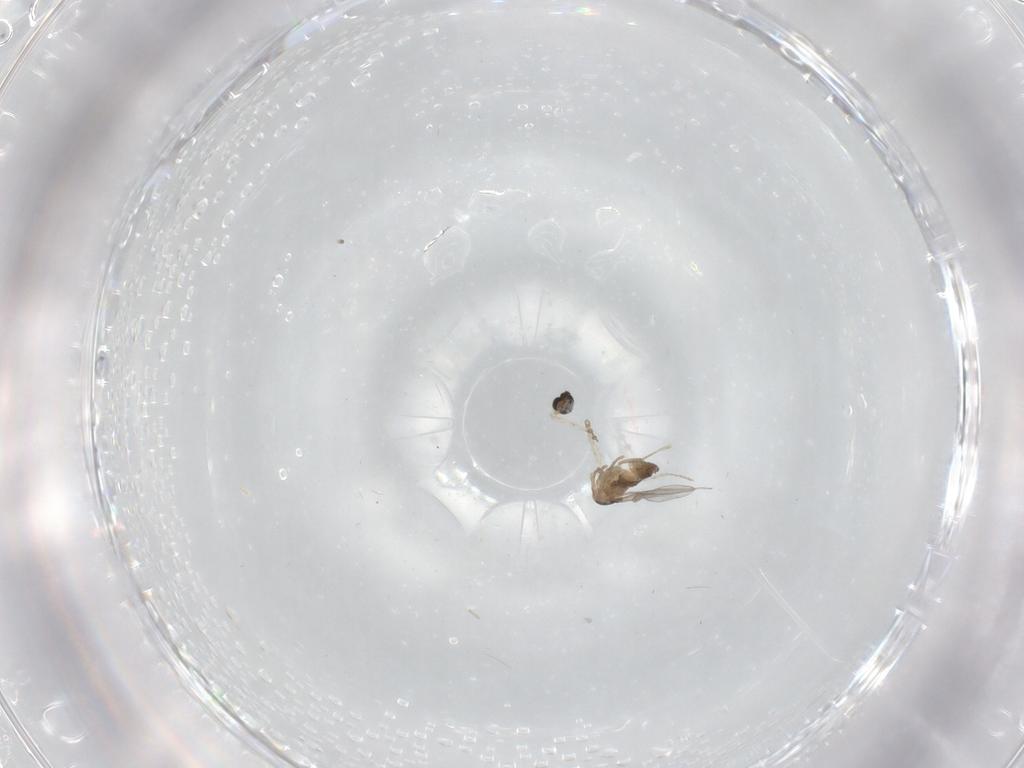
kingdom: Animalia
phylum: Arthropoda
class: Insecta
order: Diptera
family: Cecidomyiidae
